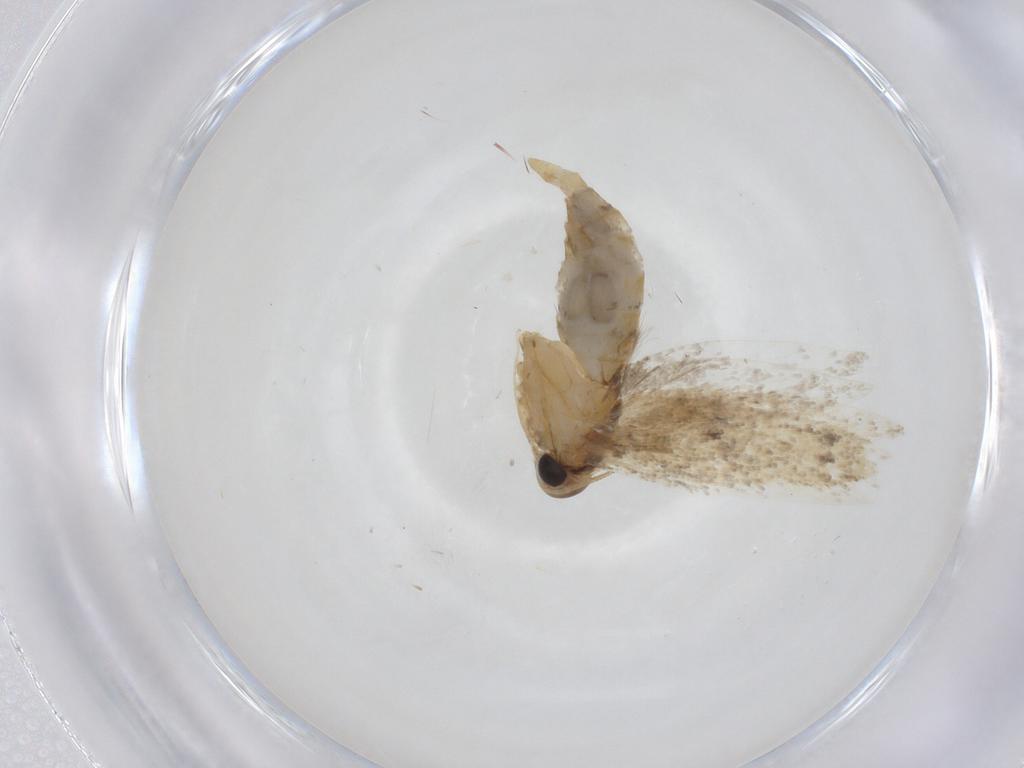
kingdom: Animalia
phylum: Arthropoda
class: Insecta
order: Lepidoptera
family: Oecophoridae
